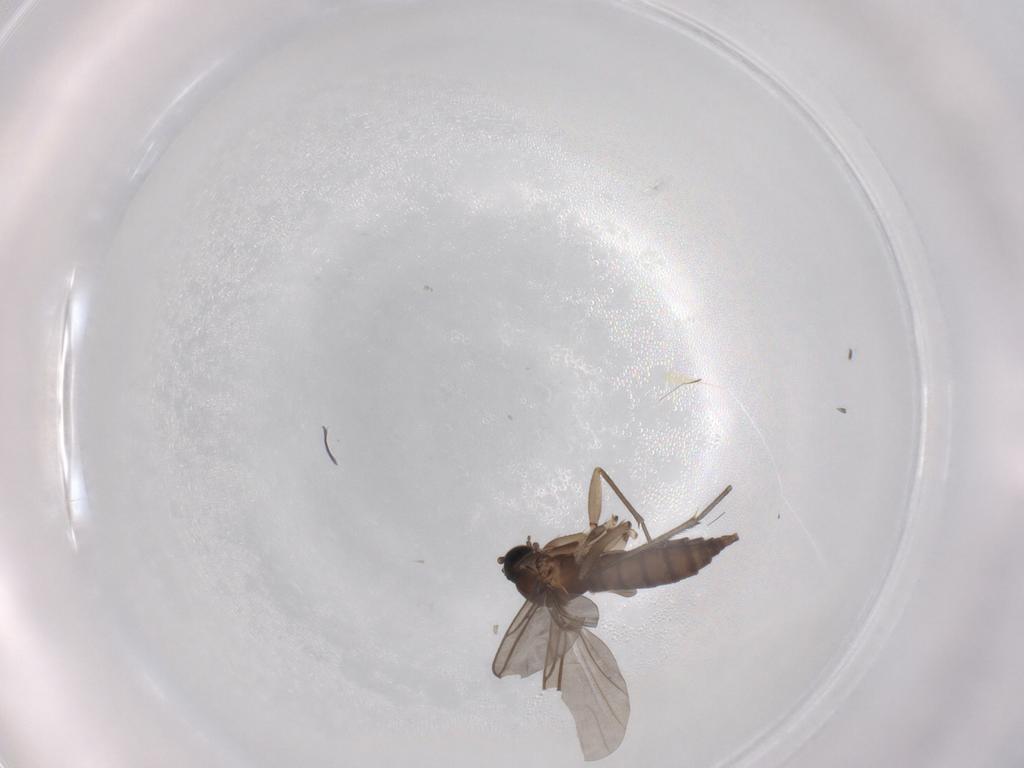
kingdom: Animalia
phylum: Arthropoda
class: Insecta
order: Diptera
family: Sciaridae
